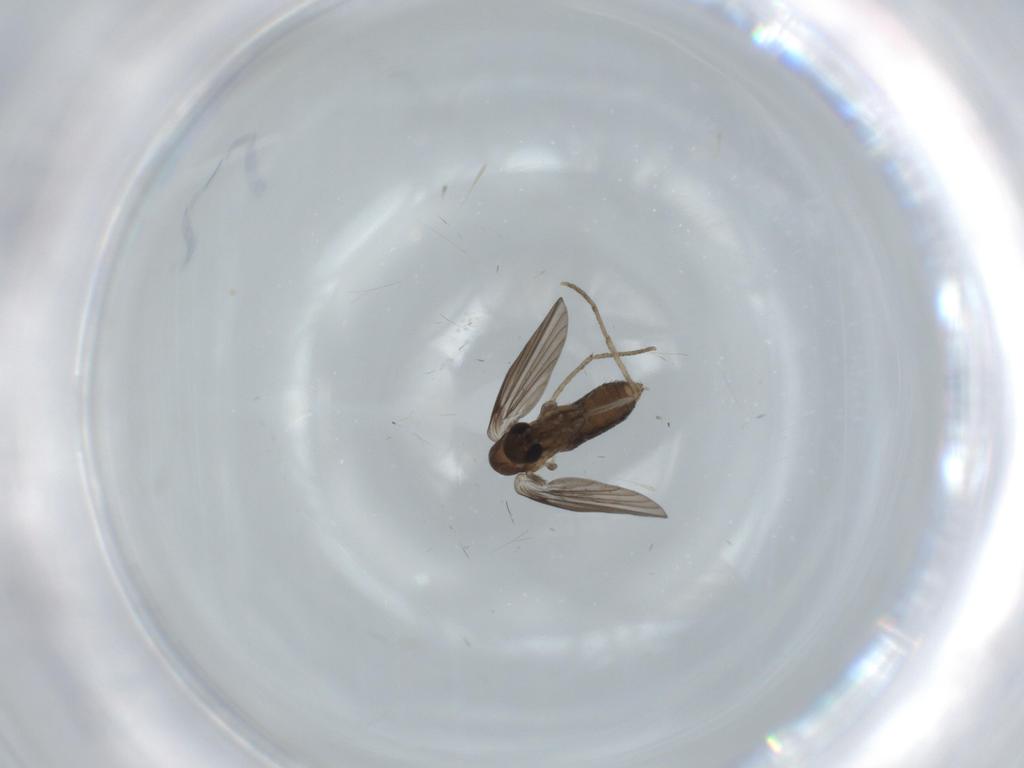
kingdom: Animalia
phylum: Arthropoda
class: Insecta
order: Diptera
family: Psychodidae
